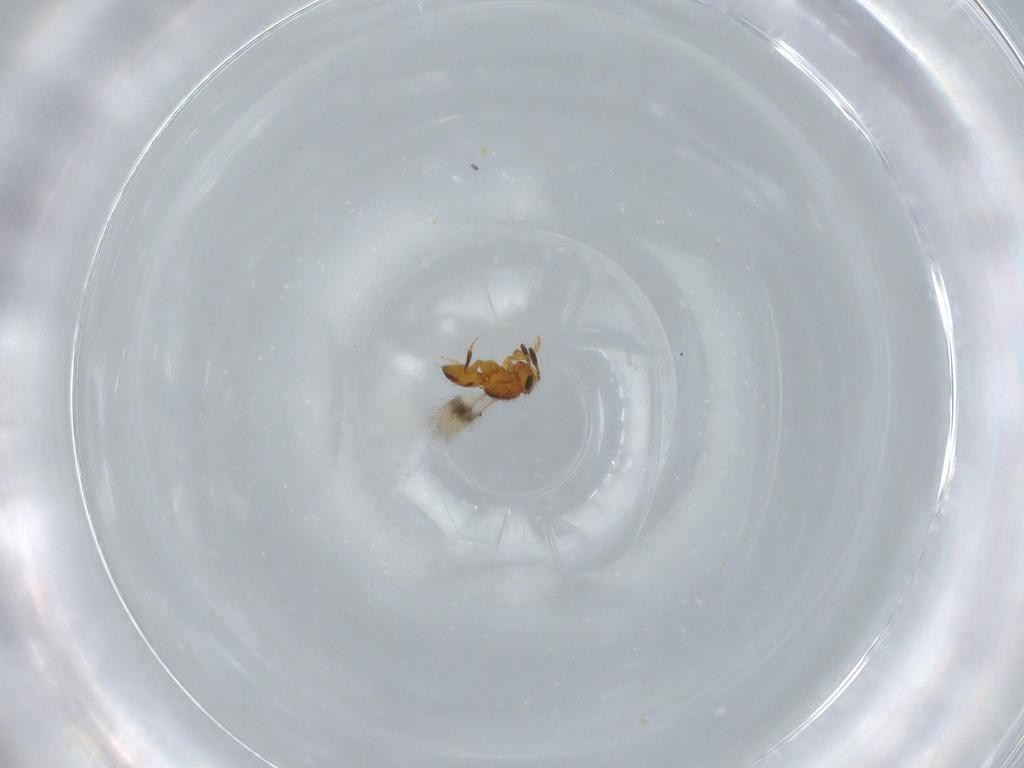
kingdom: Animalia
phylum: Arthropoda
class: Insecta
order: Hymenoptera
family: Scelionidae
